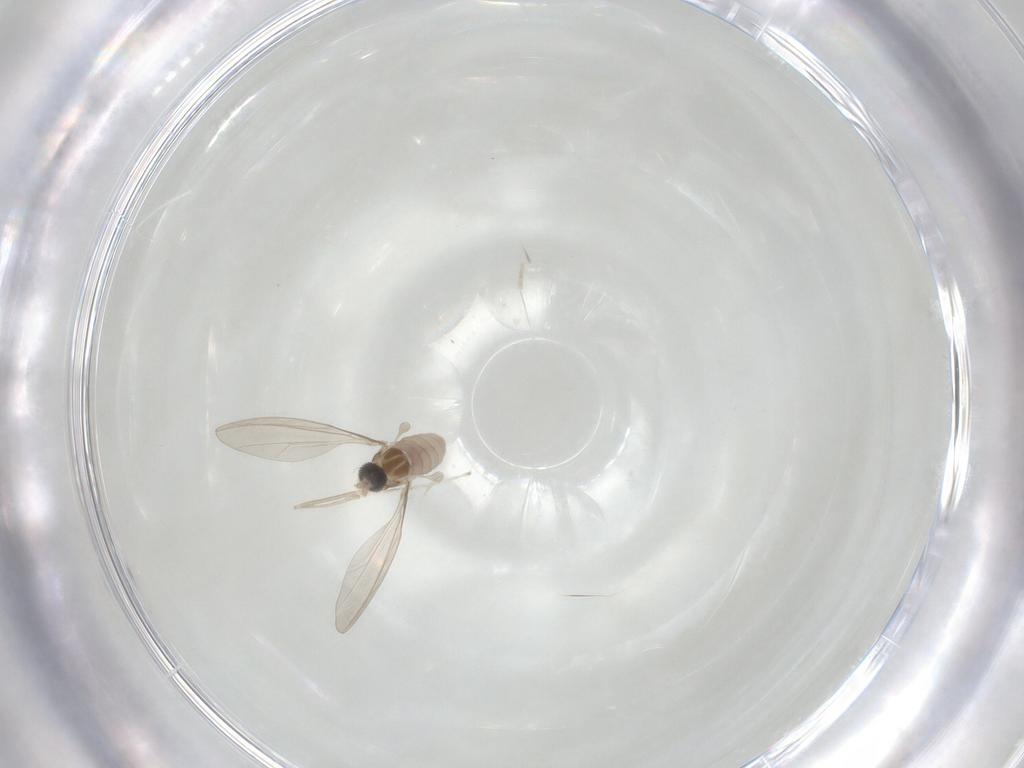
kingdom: Animalia
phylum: Arthropoda
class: Insecta
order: Diptera
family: Cecidomyiidae
